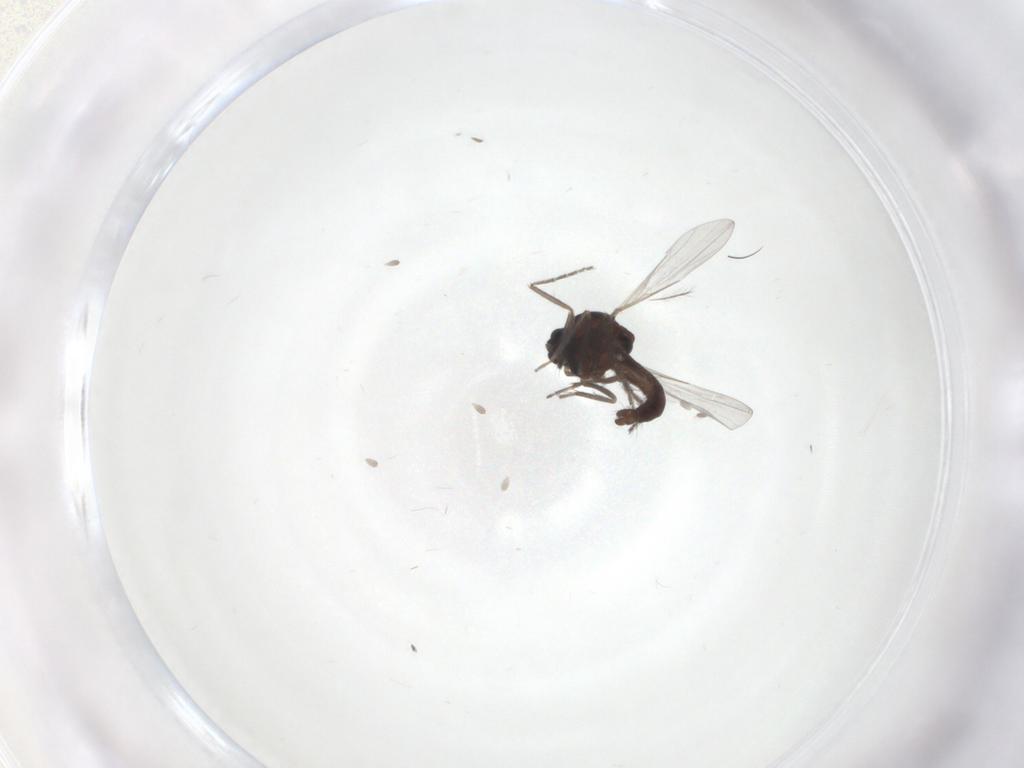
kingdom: Animalia
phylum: Arthropoda
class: Insecta
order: Diptera
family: Ceratopogonidae
